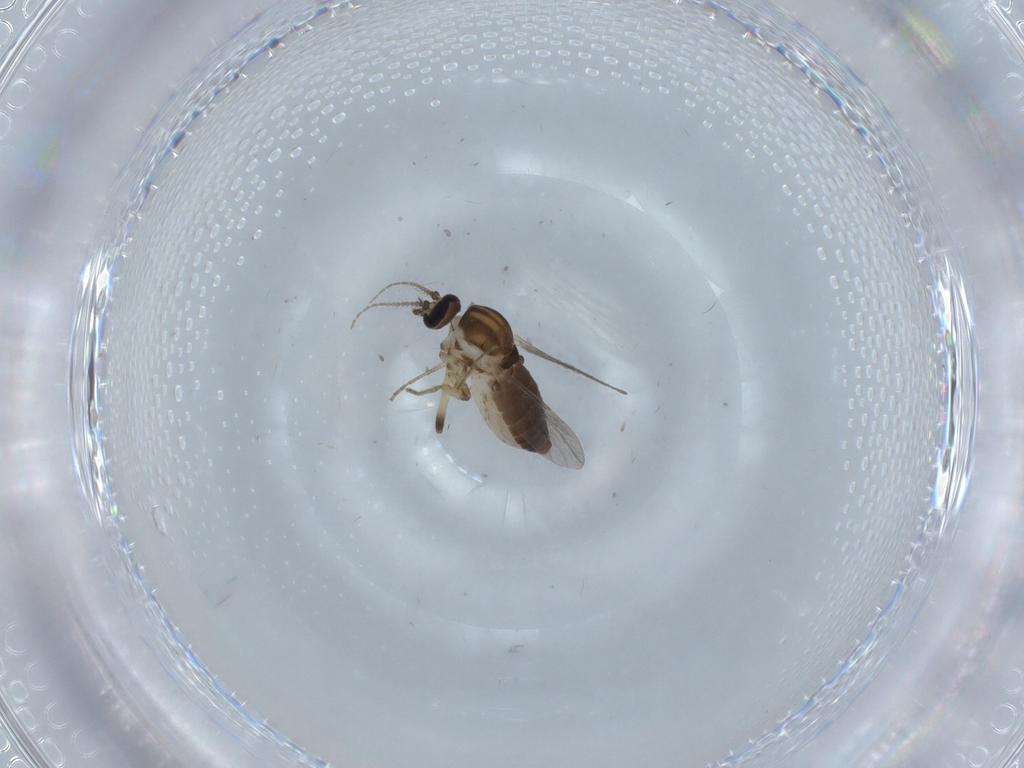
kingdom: Animalia
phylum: Arthropoda
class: Insecta
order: Diptera
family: Ceratopogonidae
